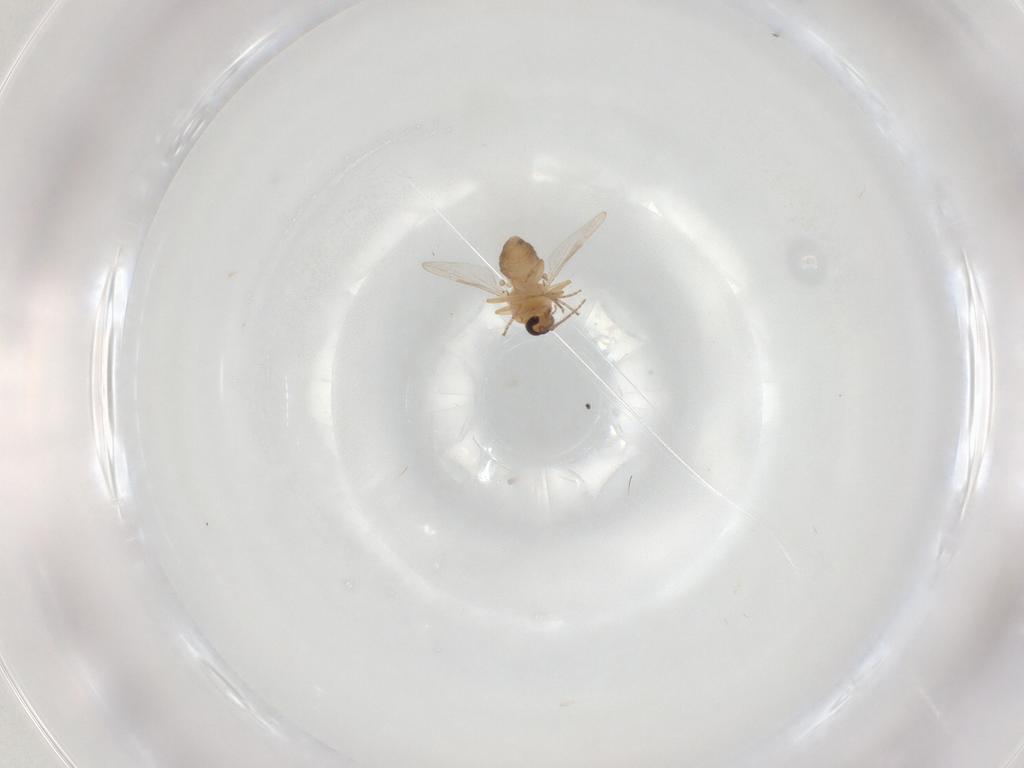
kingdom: Animalia
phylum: Arthropoda
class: Insecta
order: Diptera
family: Ceratopogonidae
